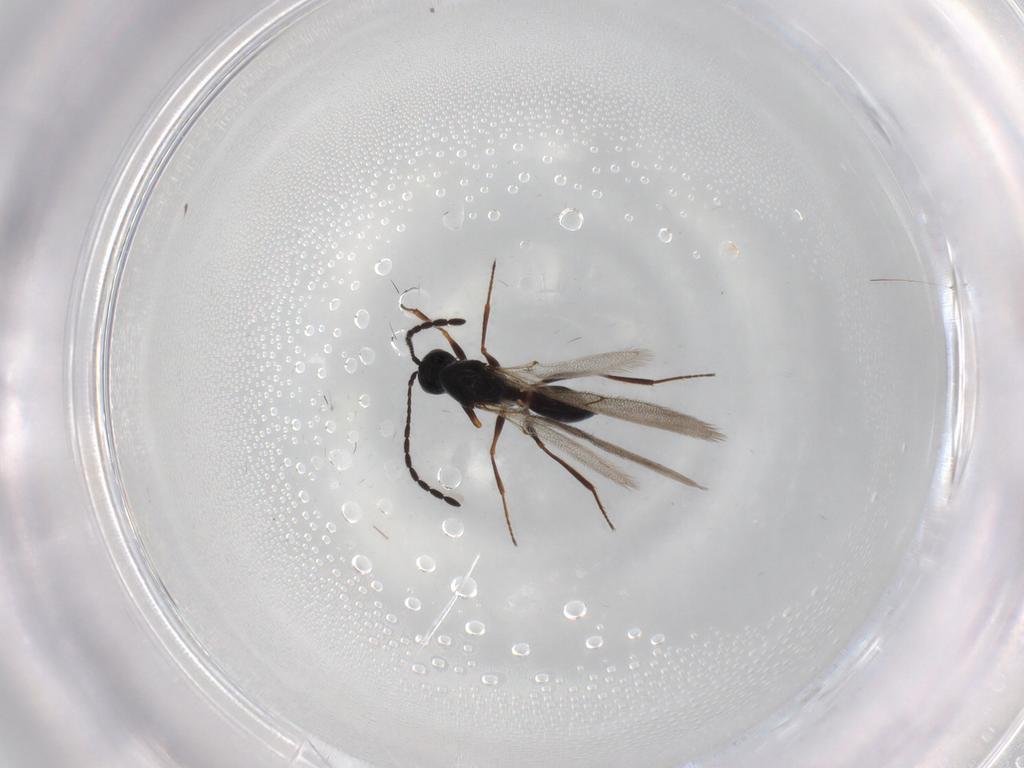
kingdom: Animalia
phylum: Arthropoda
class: Insecta
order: Hymenoptera
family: Figitidae
